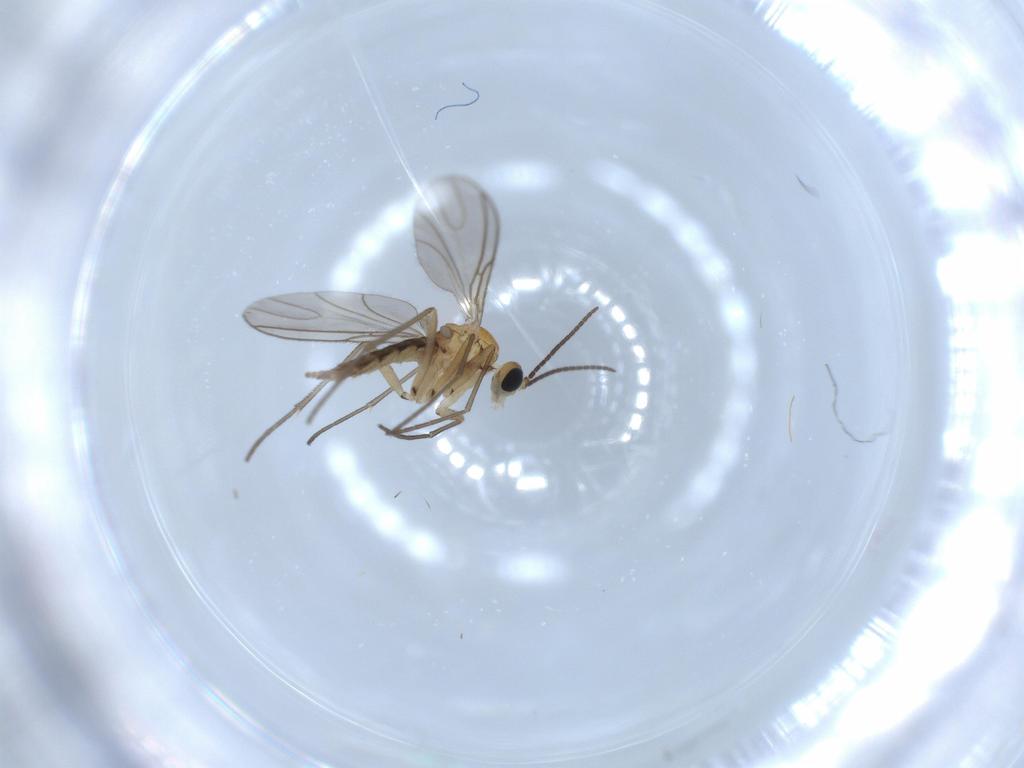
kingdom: Animalia
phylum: Arthropoda
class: Insecta
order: Diptera
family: Sciaridae
